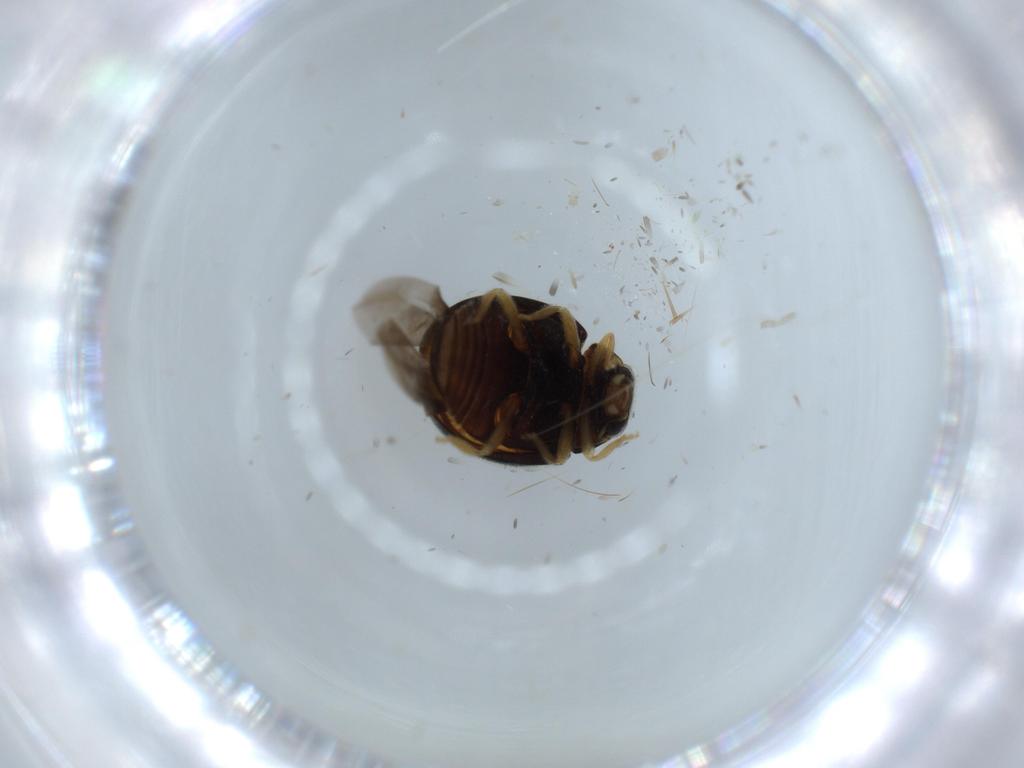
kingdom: Animalia
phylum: Arthropoda
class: Insecta
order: Coleoptera
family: Coccinellidae
